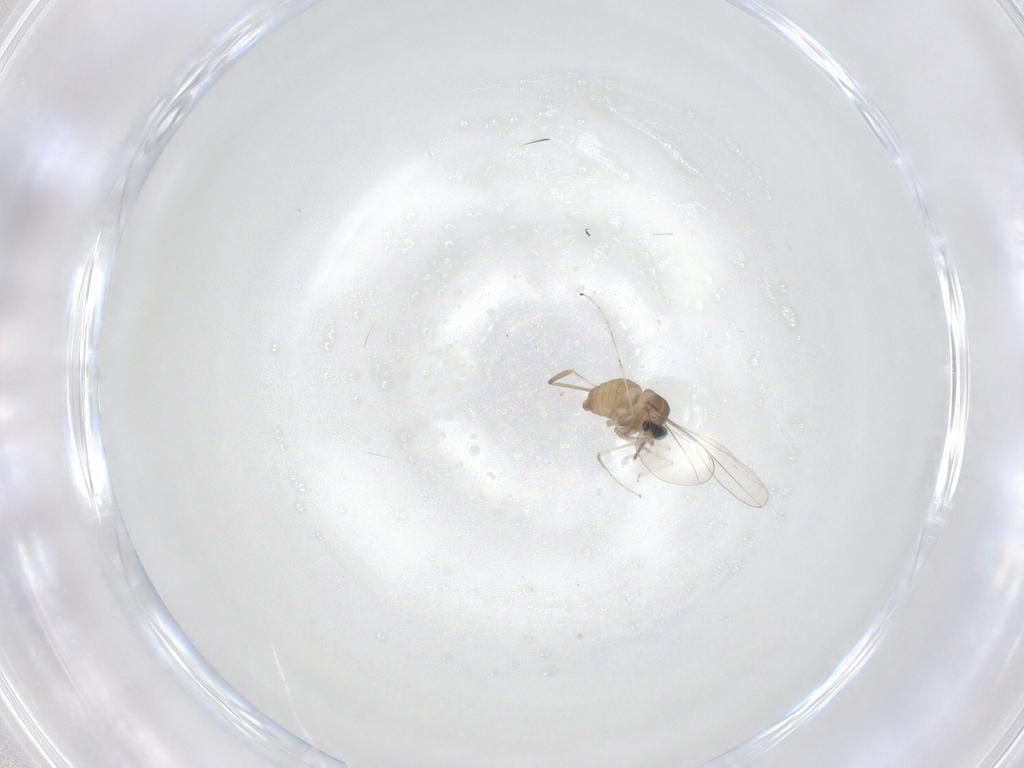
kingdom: Animalia
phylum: Arthropoda
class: Insecta
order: Diptera
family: Cecidomyiidae
